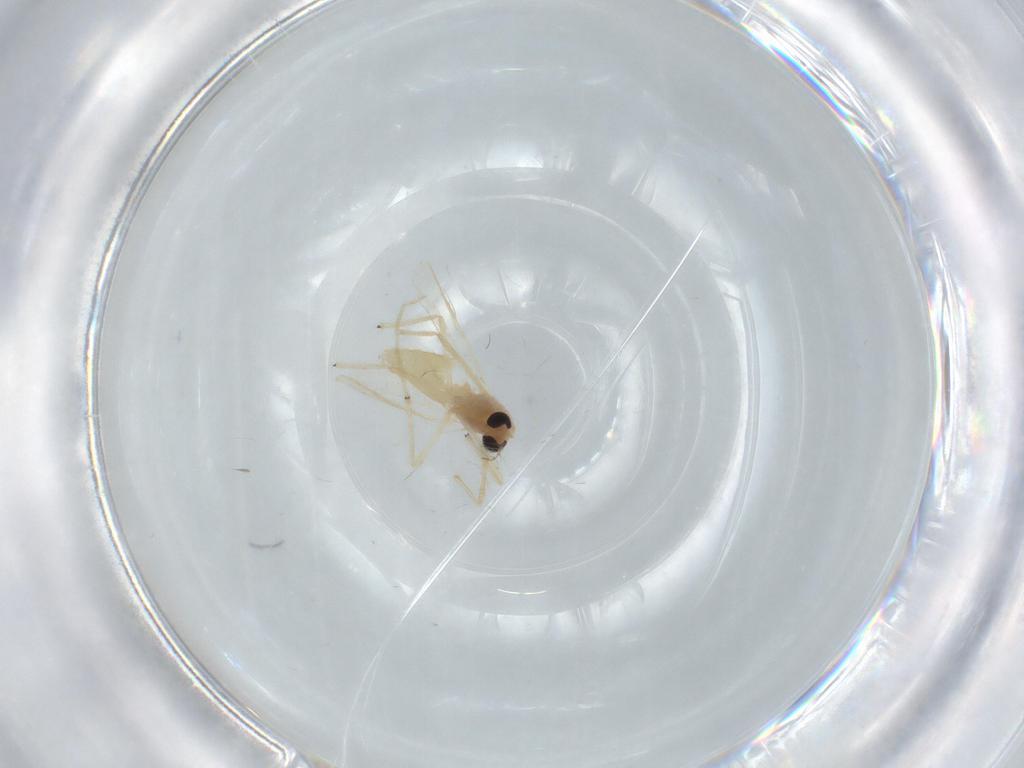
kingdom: Animalia
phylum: Arthropoda
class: Insecta
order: Diptera
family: Chironomidae
